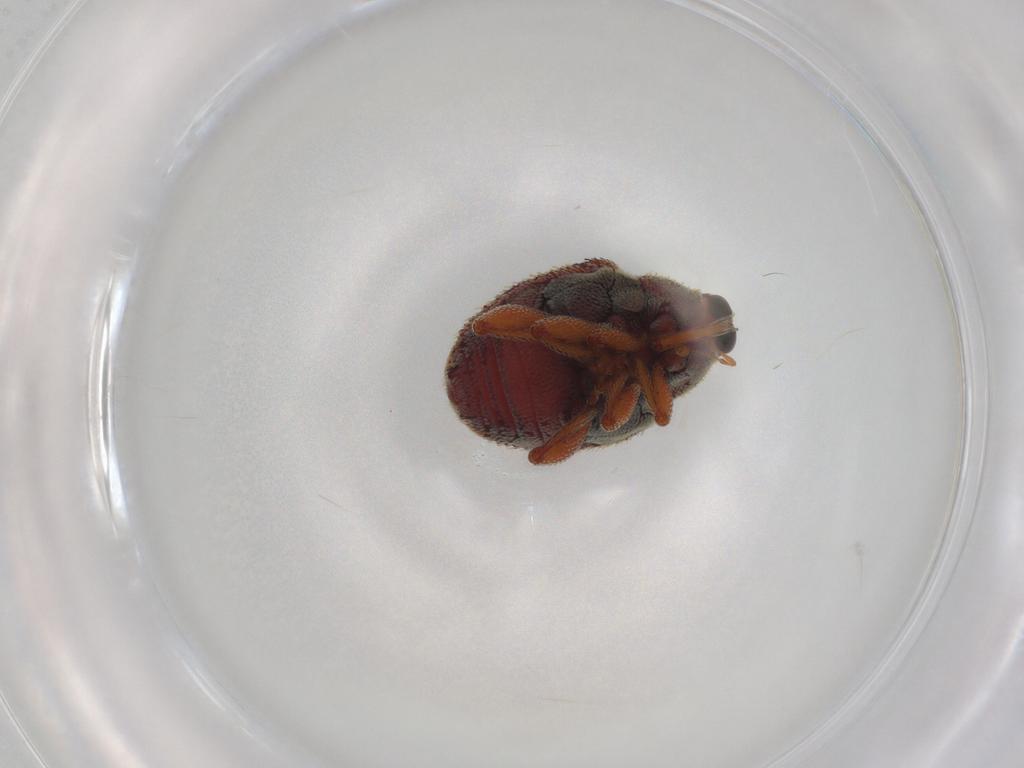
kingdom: Animalia
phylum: Arthropoda
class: Insecta
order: Coleoptera
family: Curculionidae
